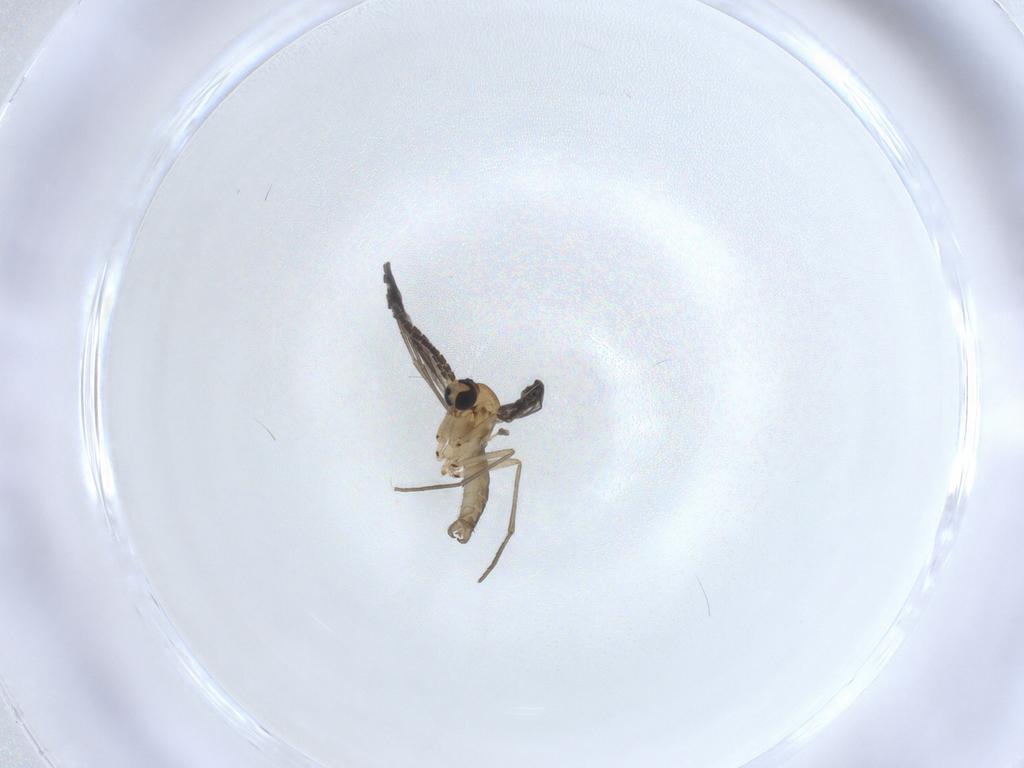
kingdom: Animalia
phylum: Arthropoda
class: Insecta
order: Diptera
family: Sciaridae
